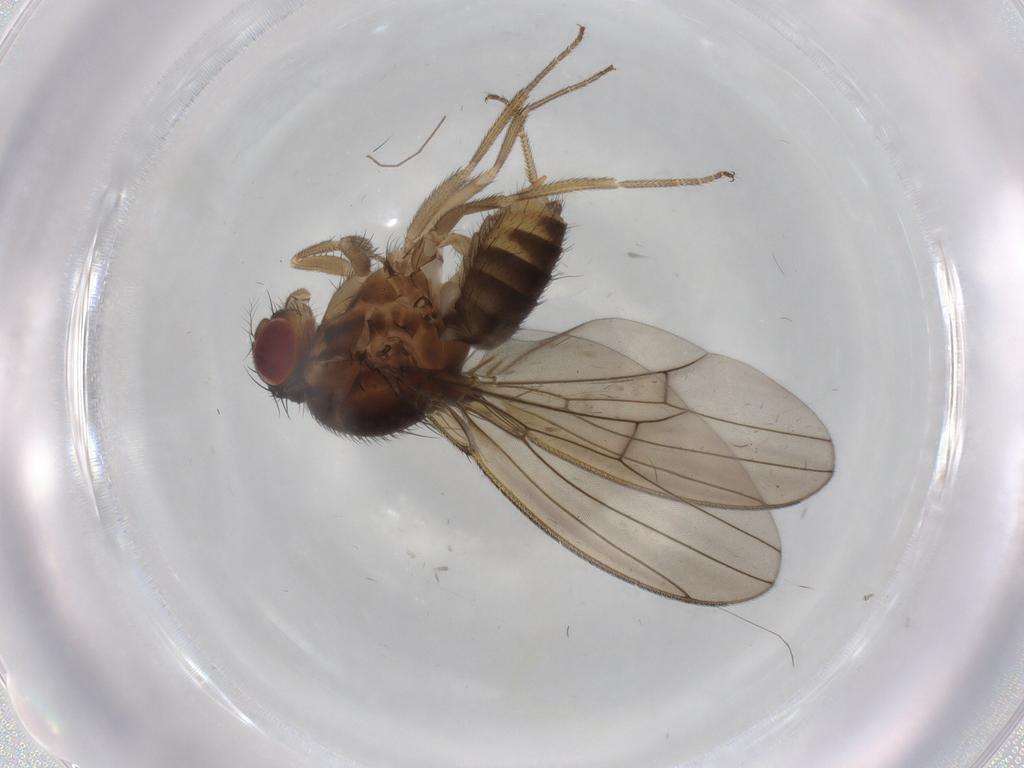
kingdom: Animalia
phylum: Arthropoda
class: Insecta
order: Diptera
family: Drosophilidae
